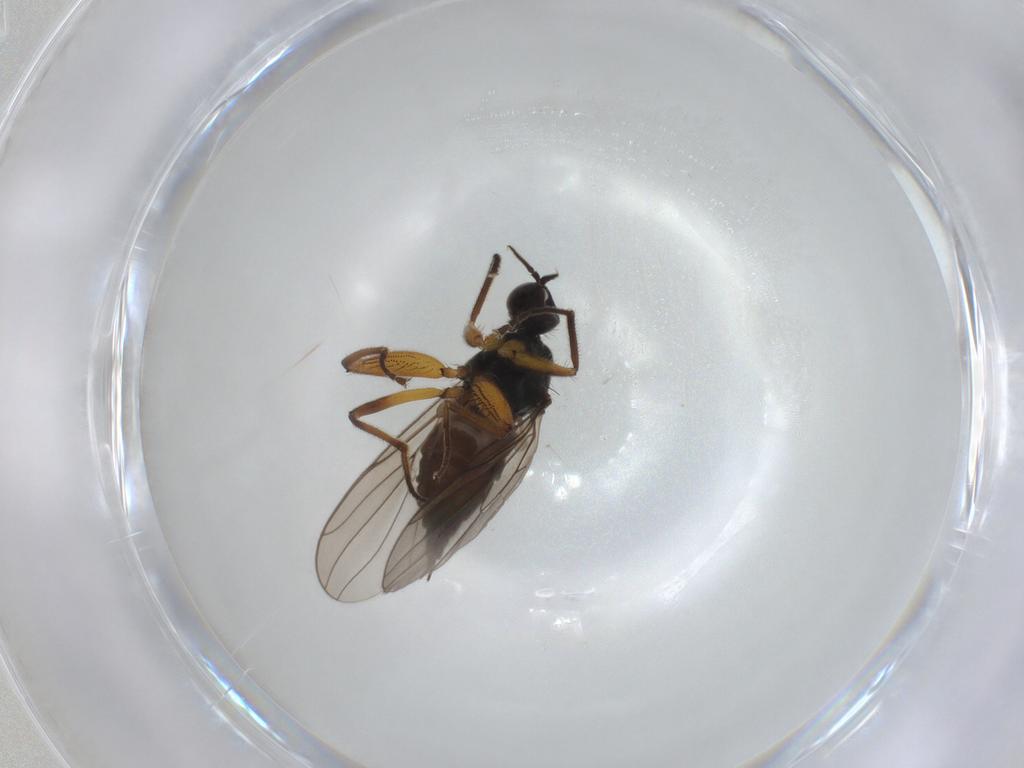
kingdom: Animalia
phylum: Arthropoda
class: Insecta
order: Diptera
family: Hybotidae
